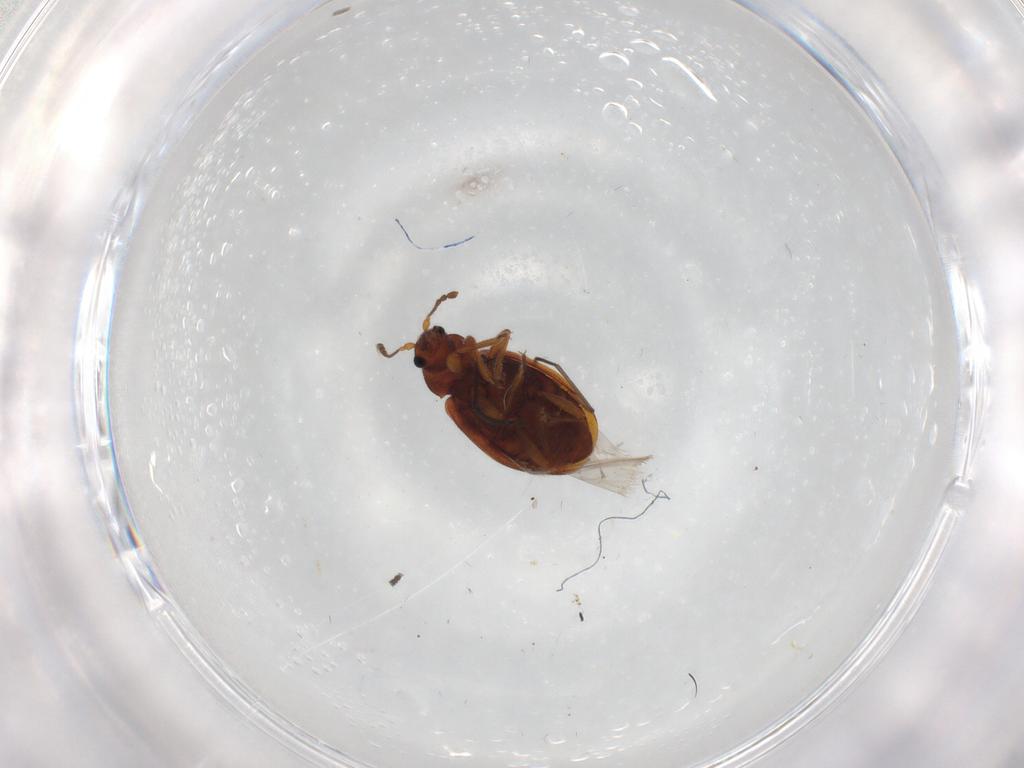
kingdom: Animalia
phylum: Arthropoda
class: Insecta
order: Coleoptera
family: Latridiidae
